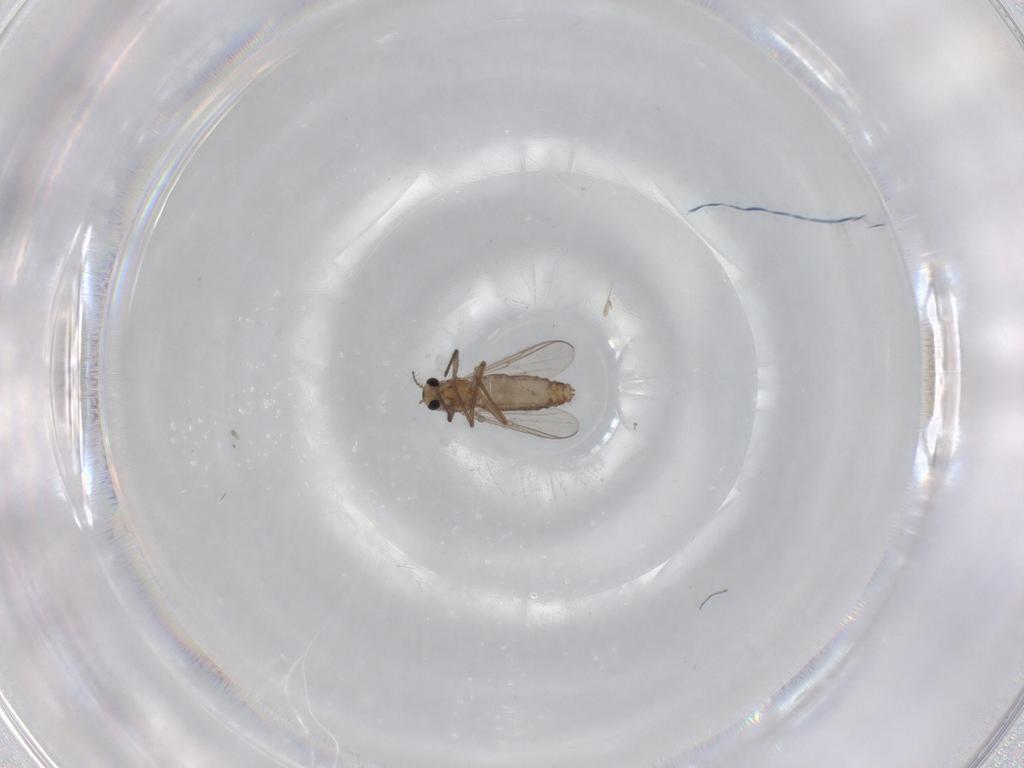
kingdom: Animalia
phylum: Arthropoda
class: Insecta
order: Diptera
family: Chironomidae
